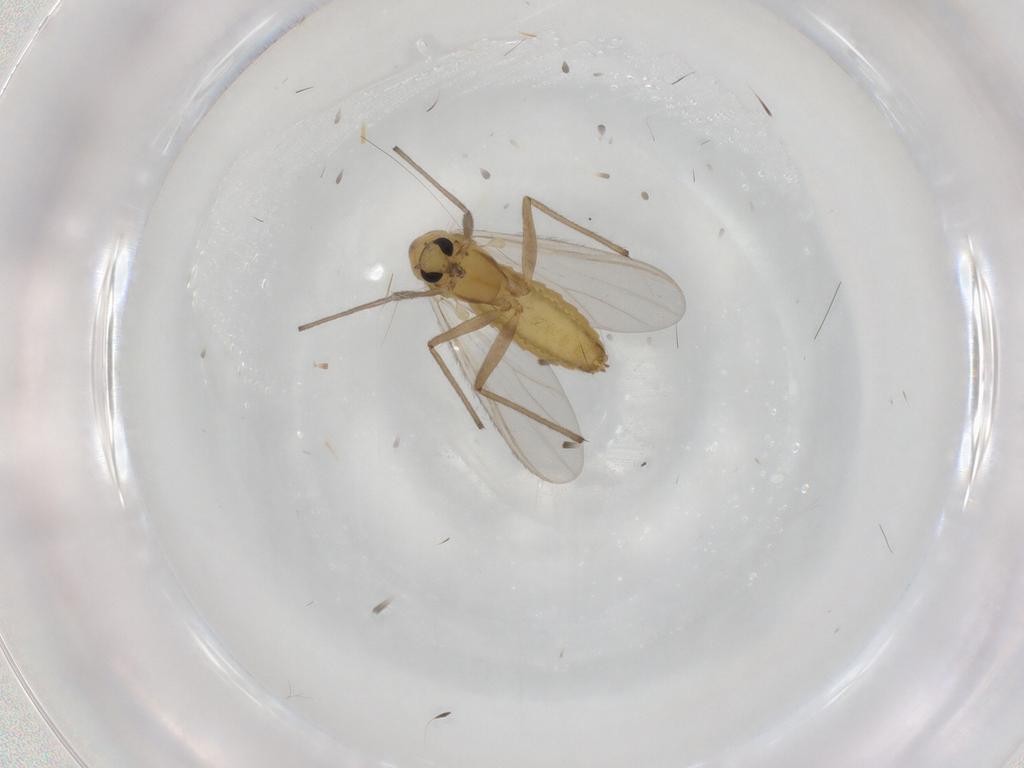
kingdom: Animalia
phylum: Arthropoda
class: Insecta
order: Diptera
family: Chironomidae
